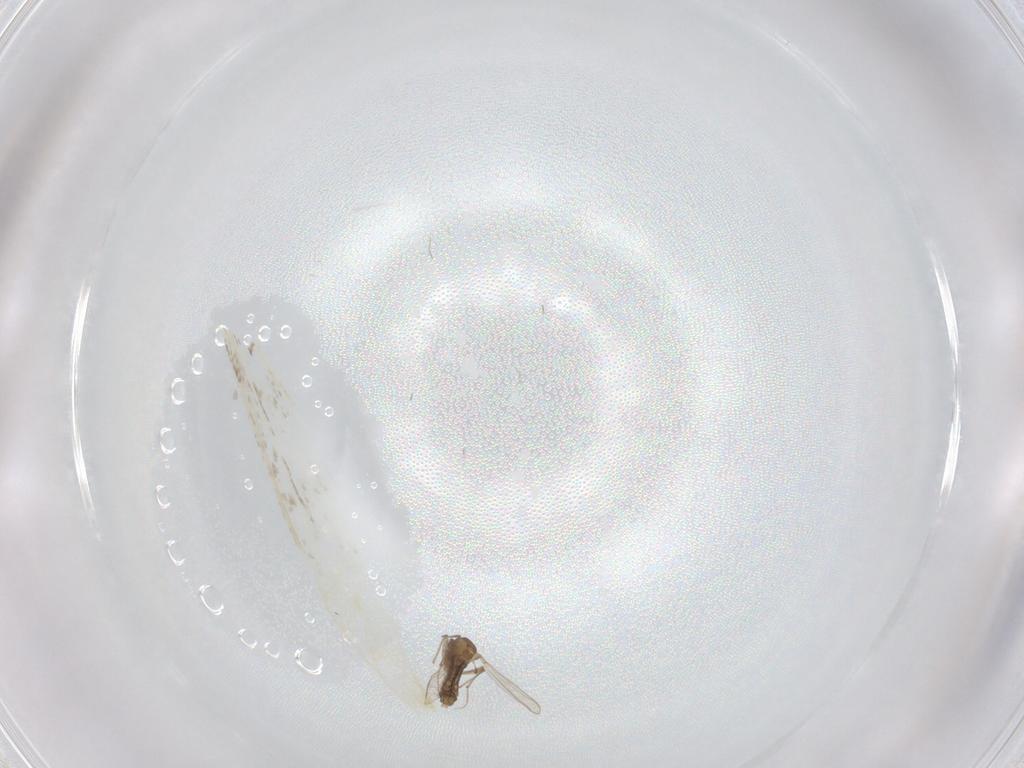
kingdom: Animalia
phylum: Arthropoda
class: Insecta
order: Diptera
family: Chironomidae
